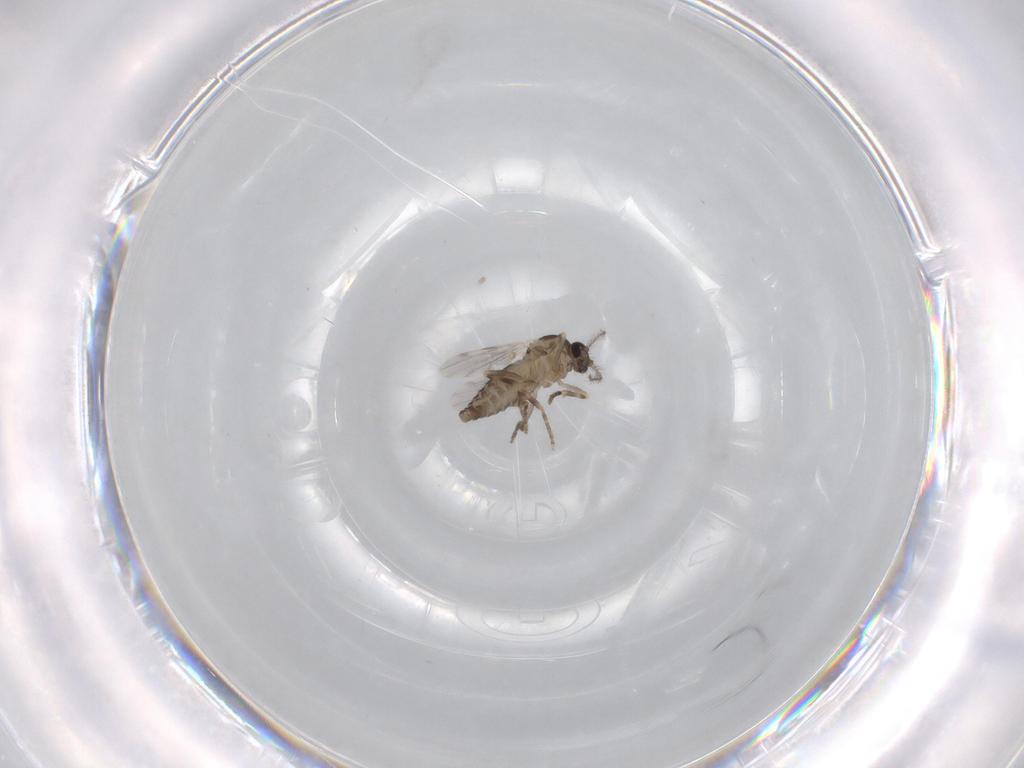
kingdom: Animalia
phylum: Arthropoda
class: Insecta
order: Diptera
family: Ceratopogonidae
